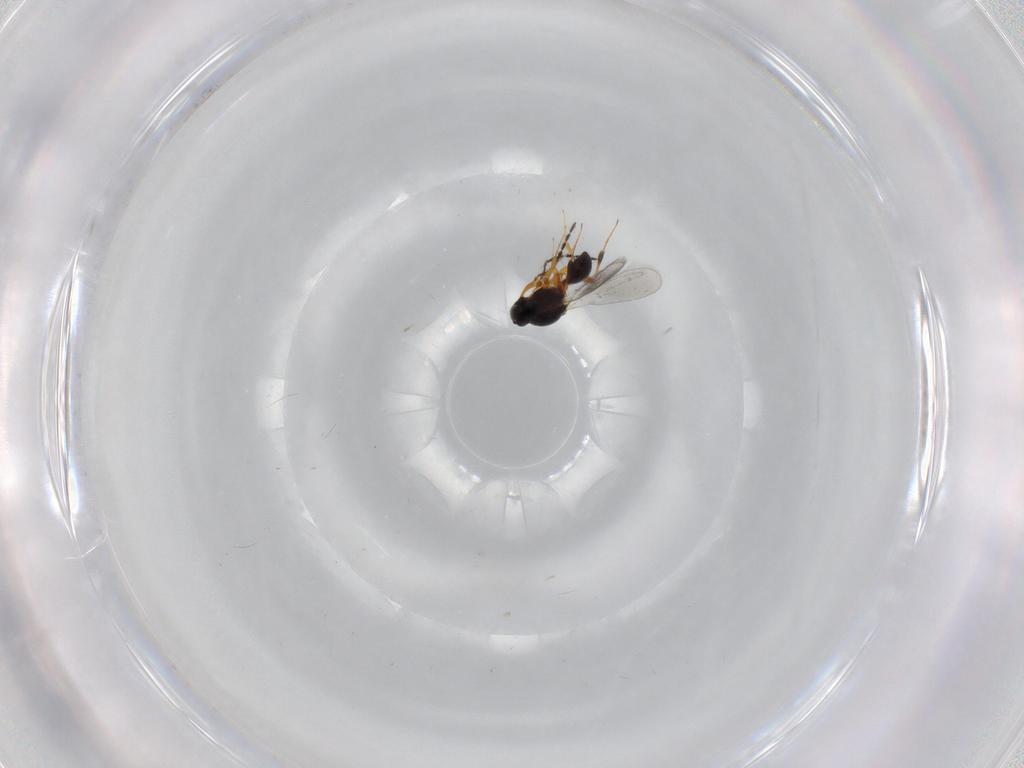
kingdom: Animalia
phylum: Arthropoda
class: Insecta
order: Hymenoptera
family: Platygastridae
